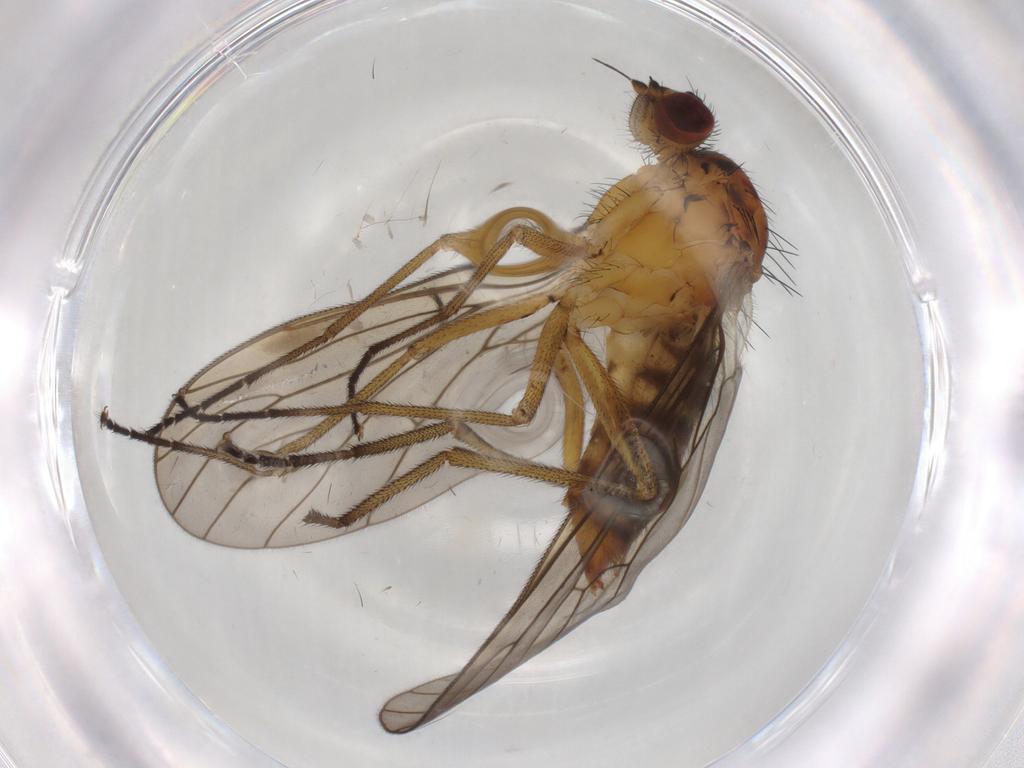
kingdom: Animalia
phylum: Arthropoda
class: Insecta
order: Diptera
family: Brachystomatidae
